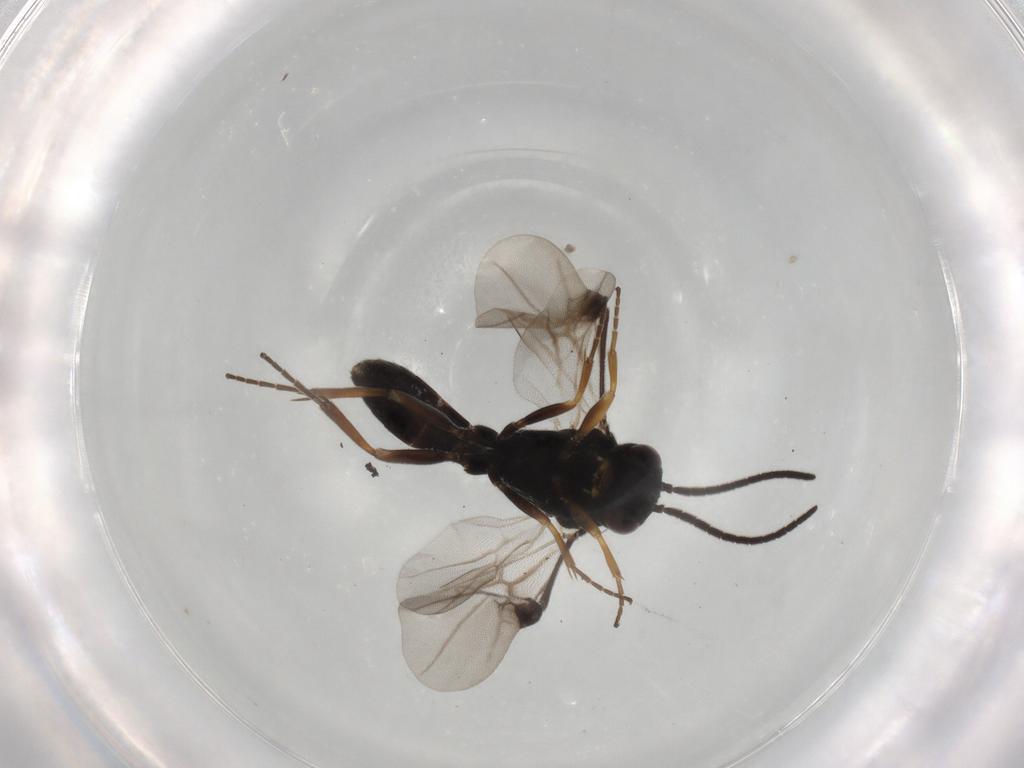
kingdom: Animalia
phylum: Arthropoda
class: Insecta
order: Hymenoptera
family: Braconidae
